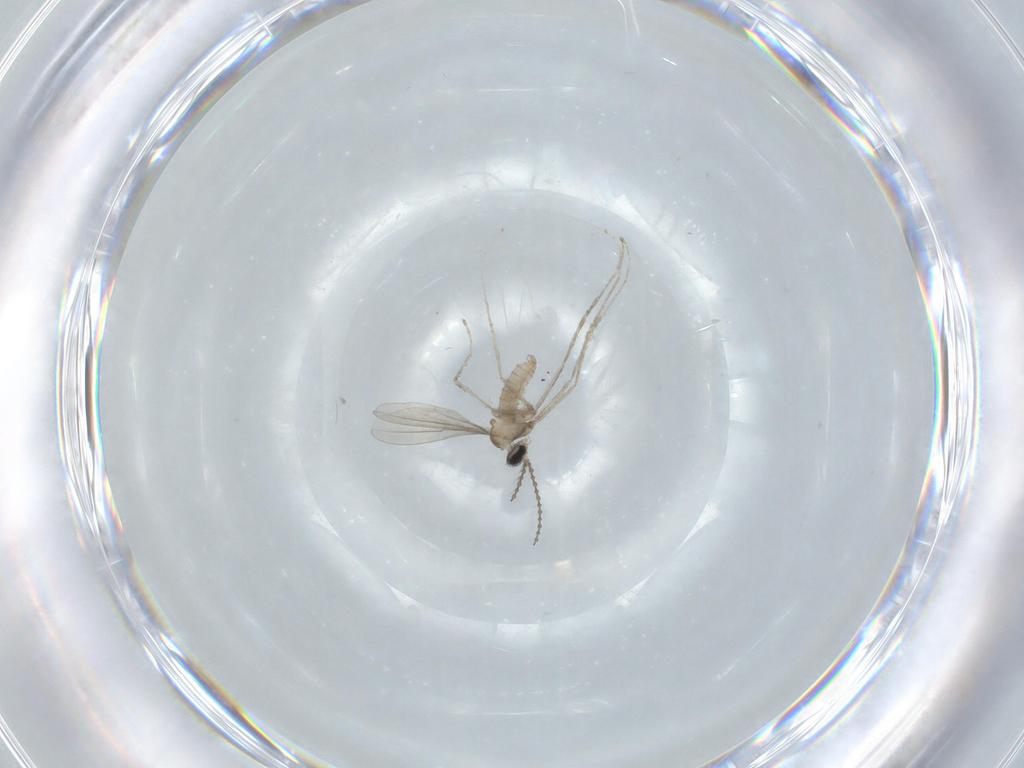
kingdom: Animalia
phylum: Arthropoda
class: Insecta
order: Diptera
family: Cecidomyiidae
